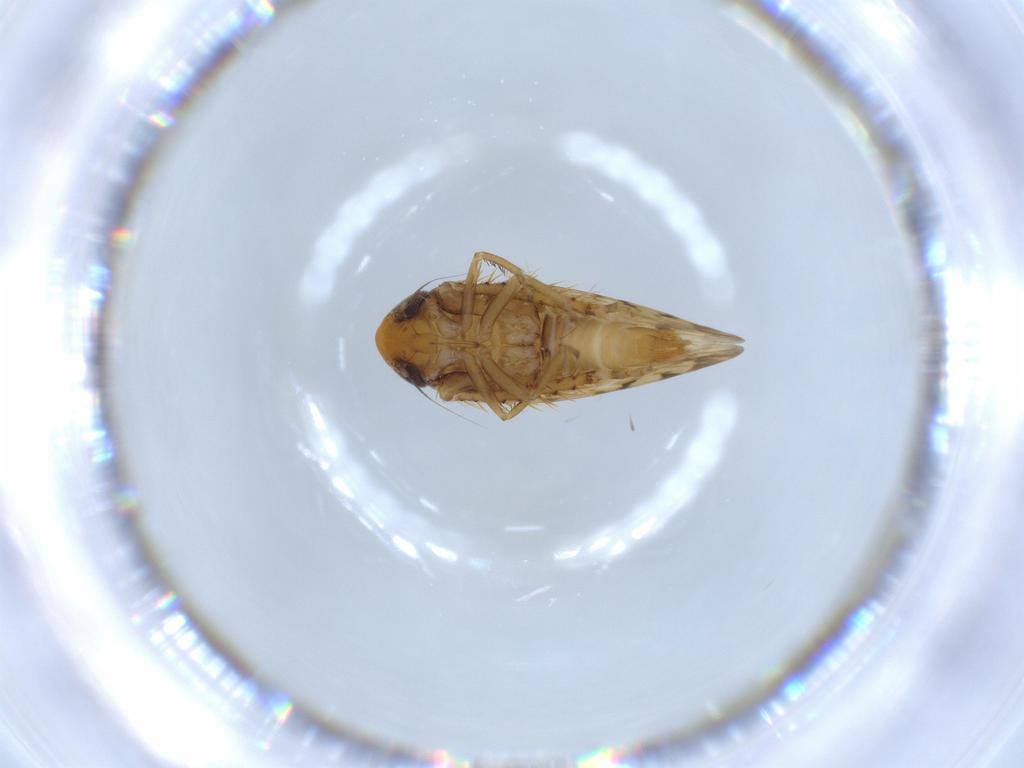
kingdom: Animalia
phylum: Arthropoda
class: Insecta
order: Hemiptera
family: Cicadellidae
